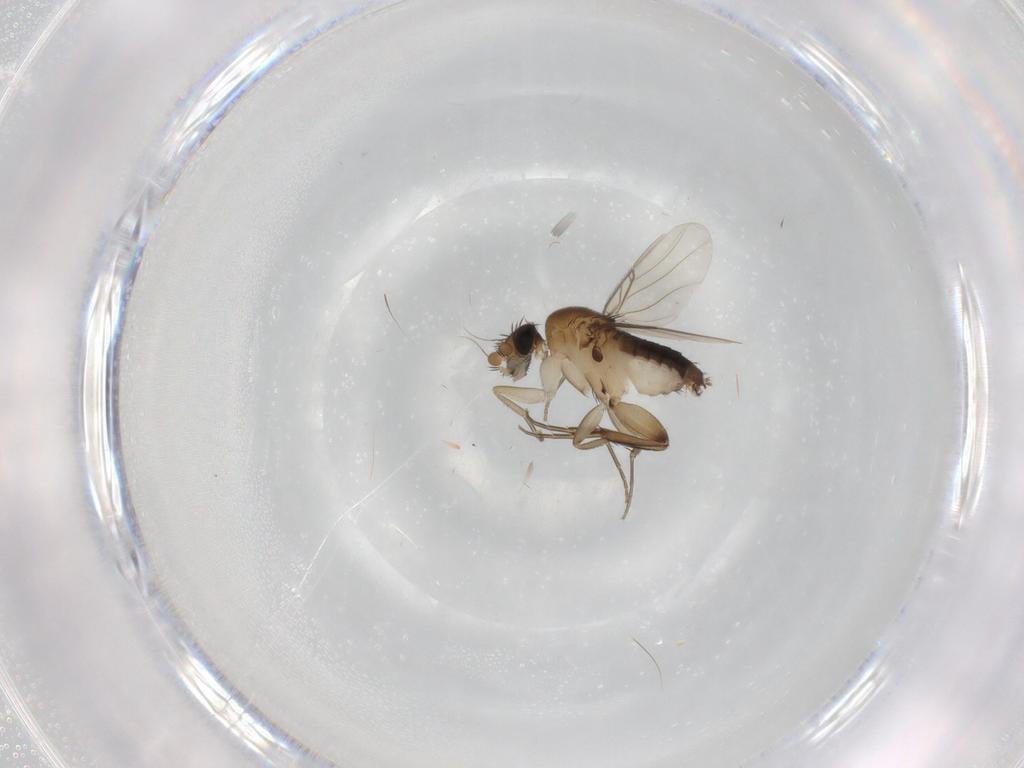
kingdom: Animalia
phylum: Arthropoda
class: Insecta
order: Diptera
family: Phoridae
